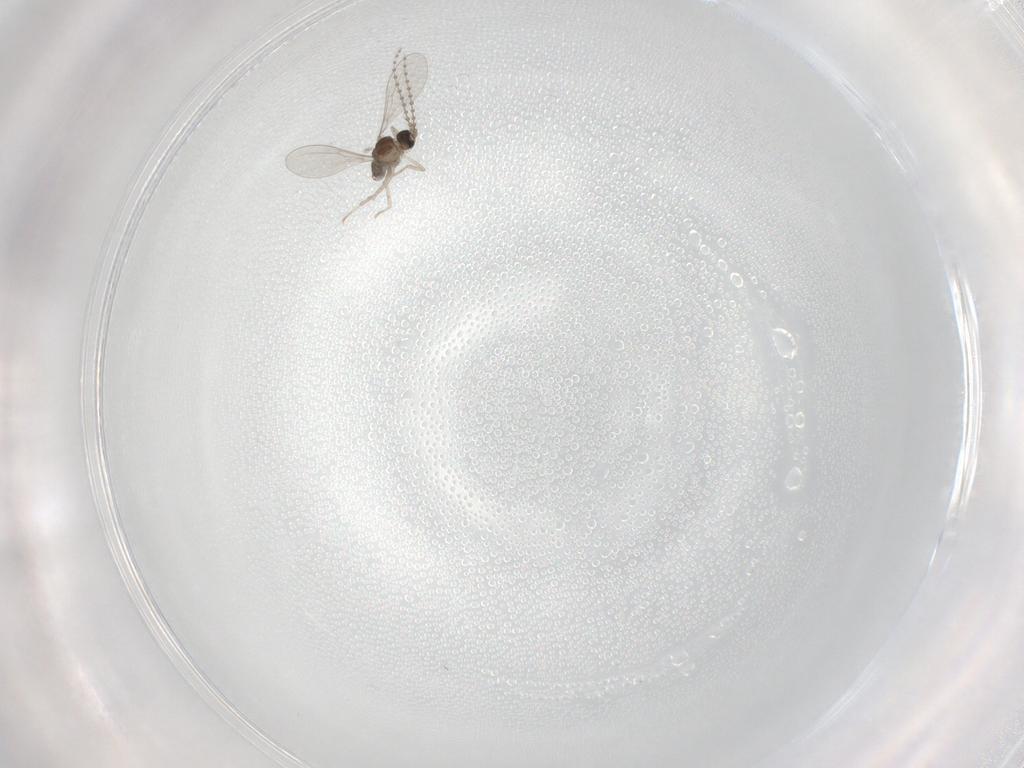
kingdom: Animalia
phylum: Arthropoda
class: Insecta
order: Diptera
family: Cecidomyiidae
